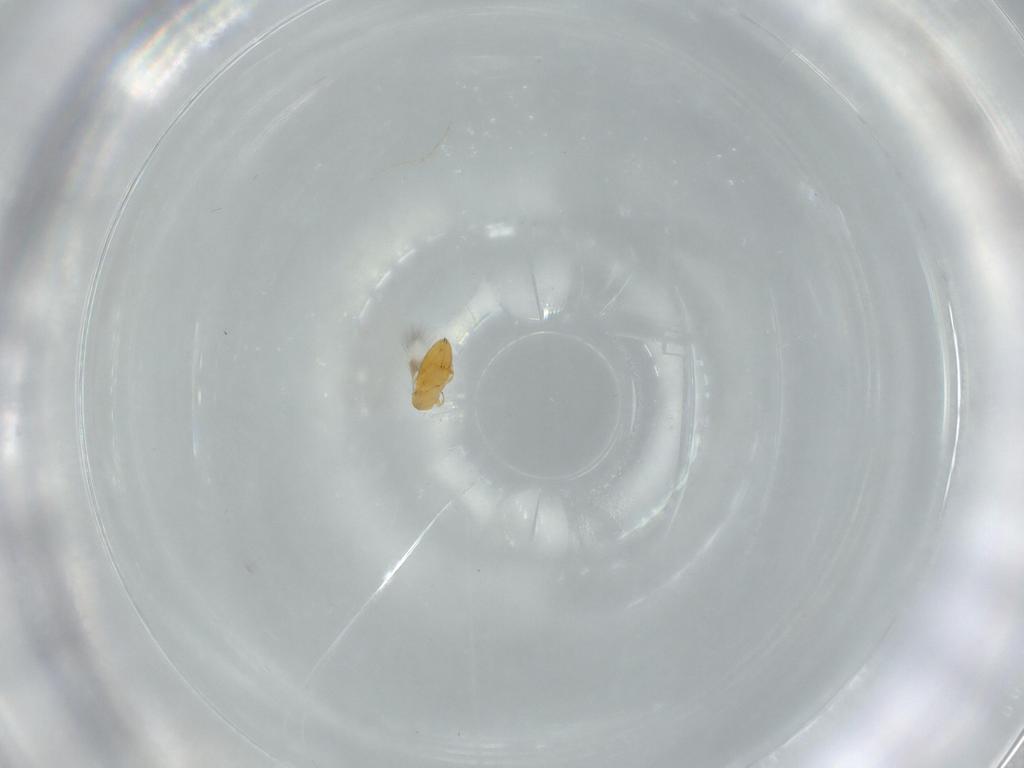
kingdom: Animalia
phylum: Arthropoda
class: Insecta
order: Hymenoptera
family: Signiphoridae
